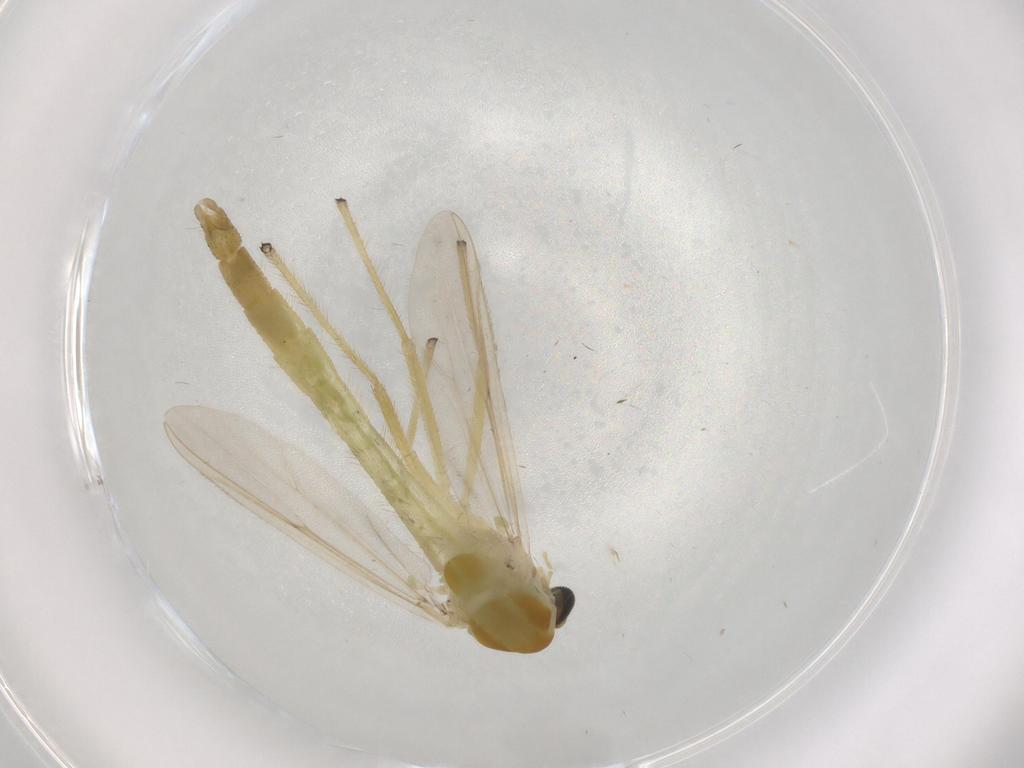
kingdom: Animalia
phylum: Arthropoda
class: Insecta
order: Diptera
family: Chironomidae
